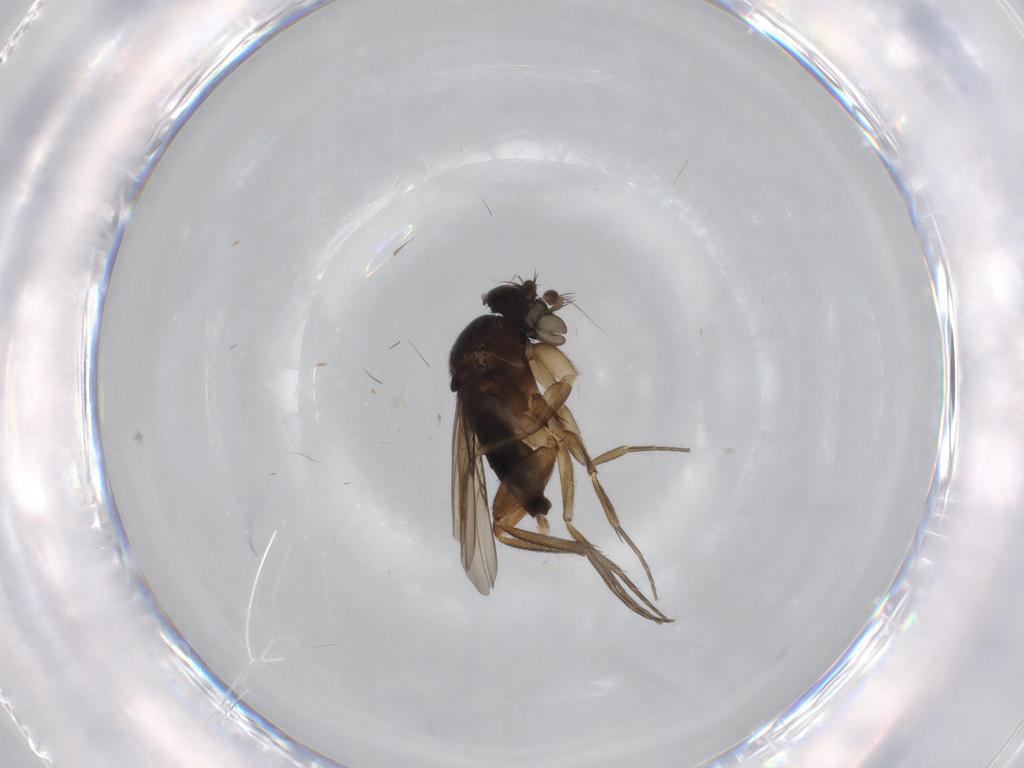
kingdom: Animalia
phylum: Arthropoda
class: Insecta
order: Diptera
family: Phoridae
